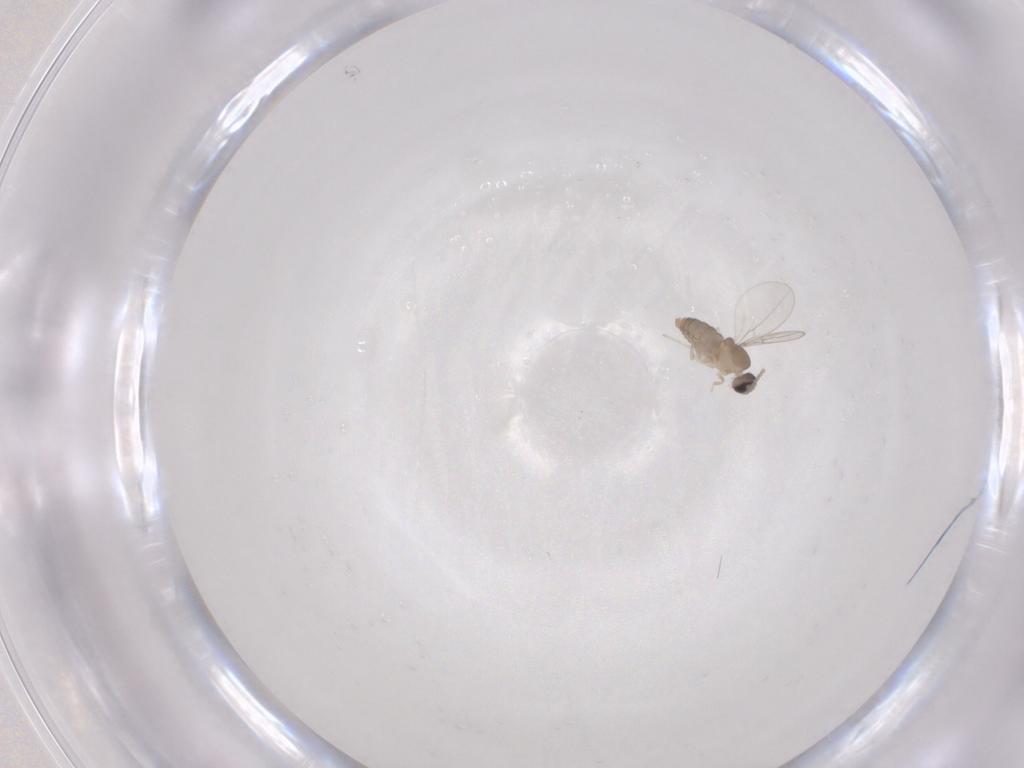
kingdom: Animalia
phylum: Arthropoda
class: Insecta
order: Diptera
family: Cecidomyiidae
